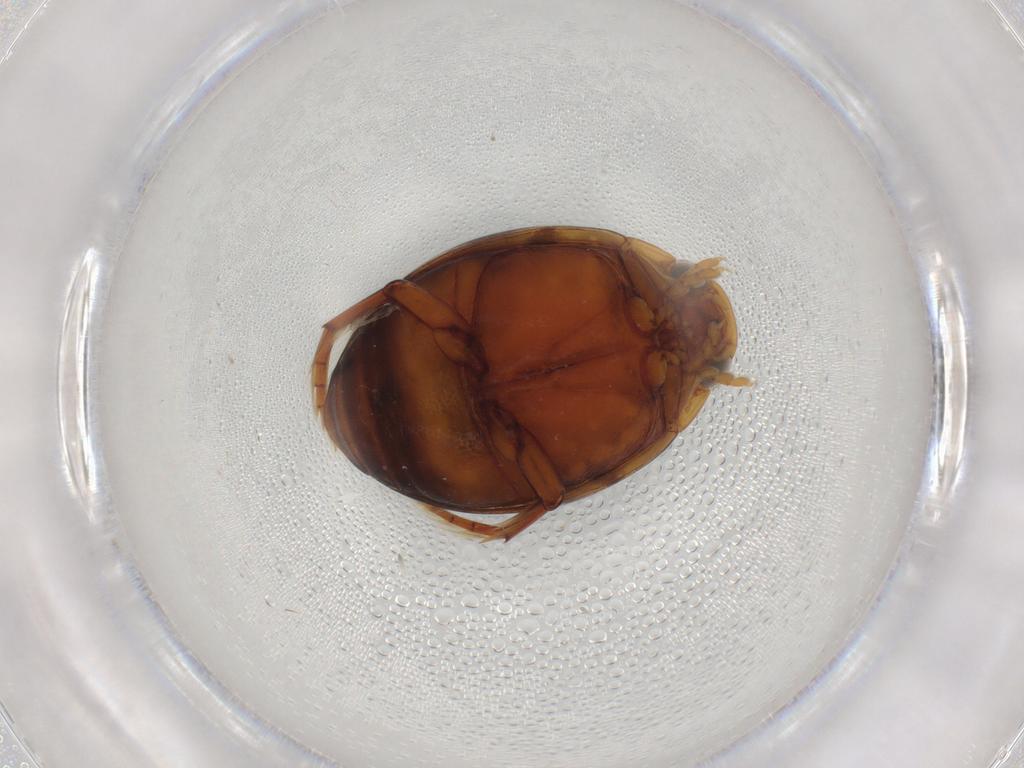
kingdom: Animalia
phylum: Arthropoda
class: Insecta
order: Coleoptera
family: Dytiscidae
